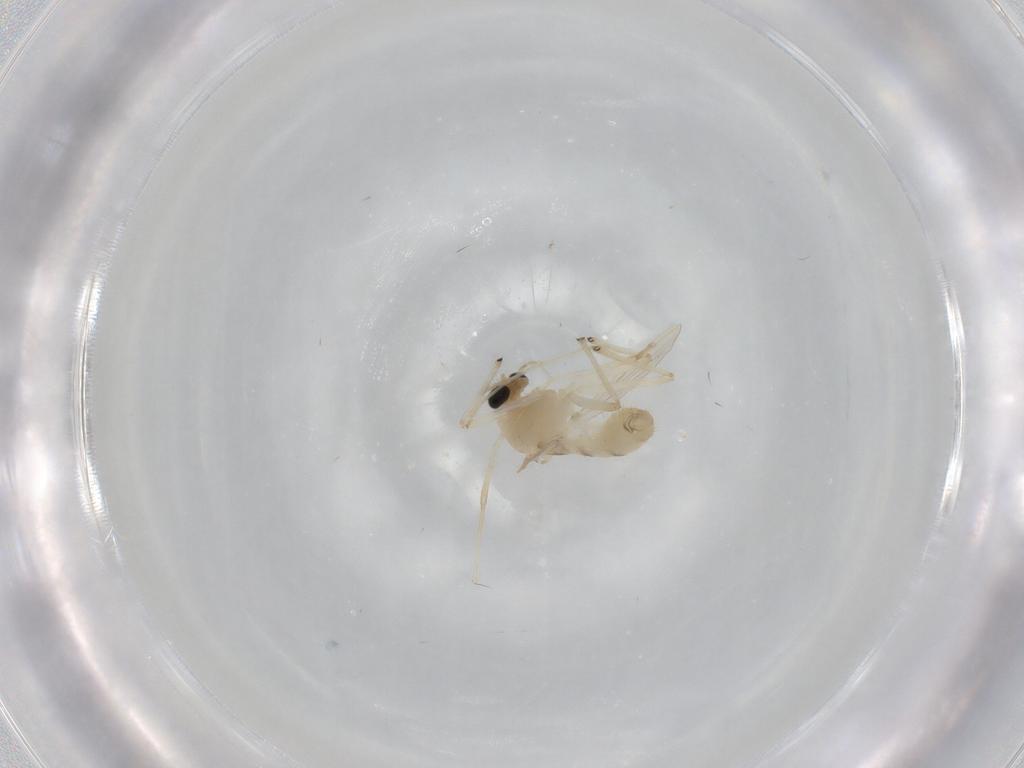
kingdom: Animalia
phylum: Arthropoda
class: Insecta
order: Diptera
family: Chironomidae
